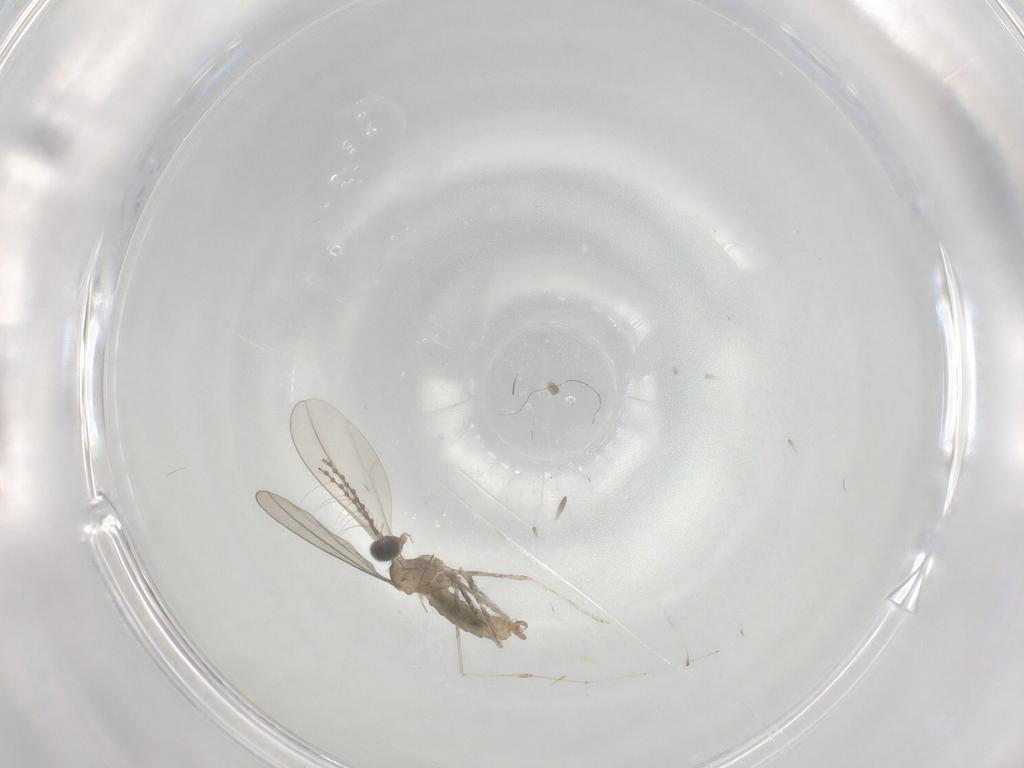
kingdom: Animalia
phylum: Arthropoda
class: Insecta
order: Diptera
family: Cecidomyiidae
